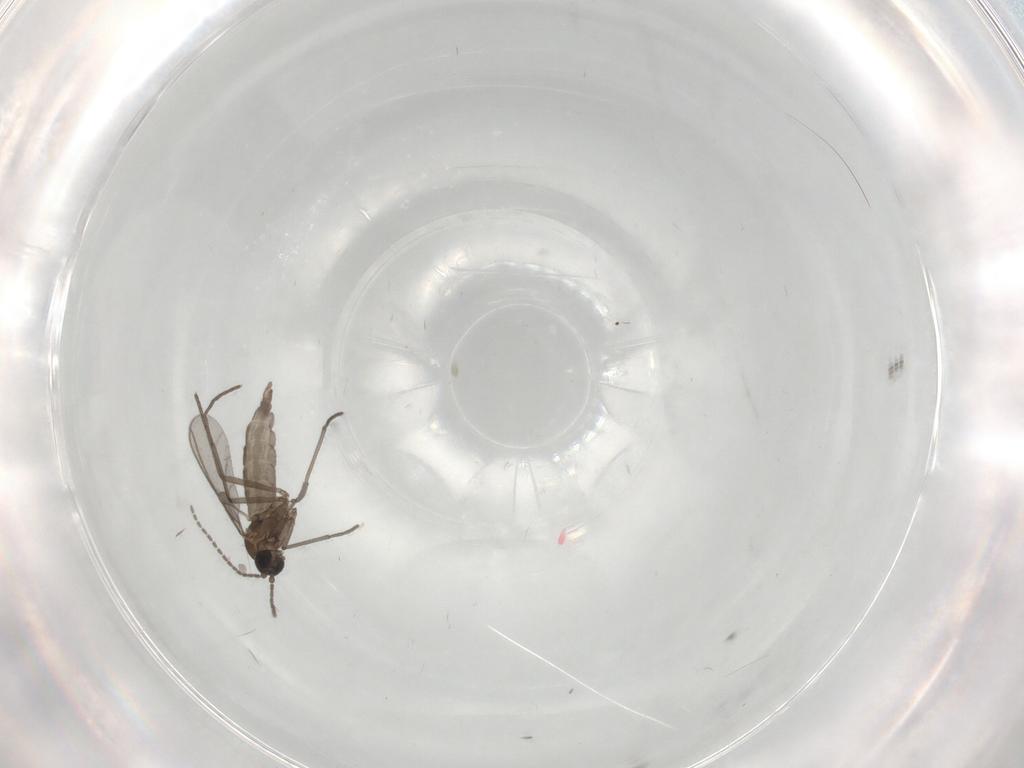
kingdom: Animalia
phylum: Arthropoda
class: Insecta
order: Diptera
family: Sciaridae
